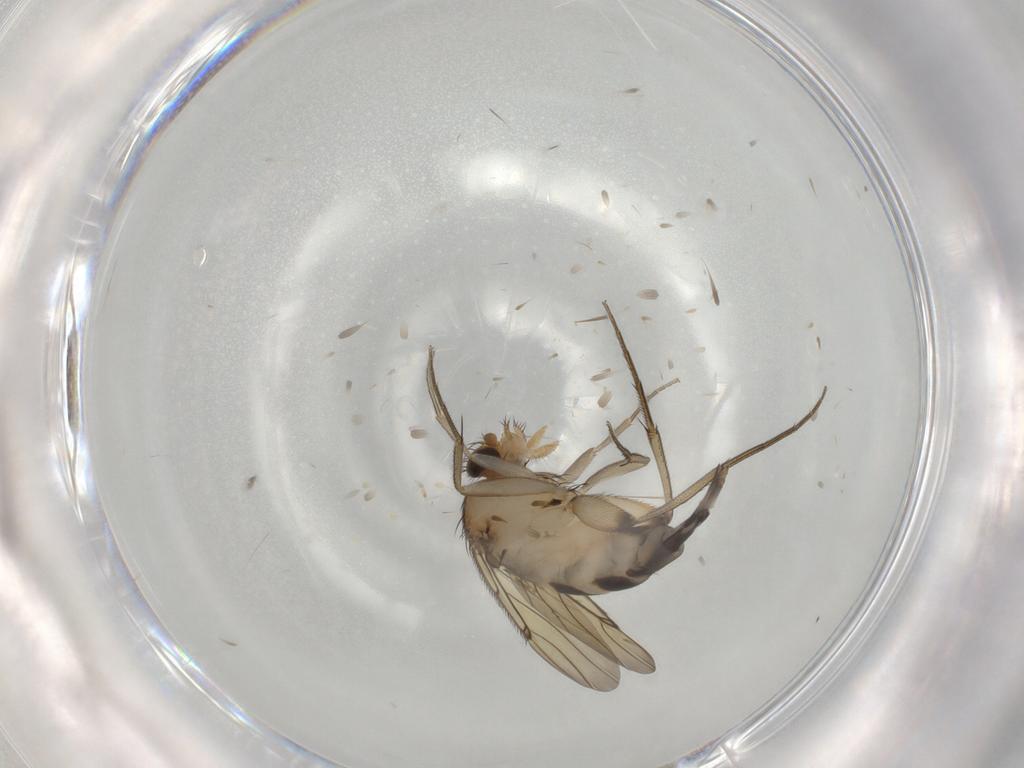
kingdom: Animalia
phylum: Arthropoda
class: Insecta
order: Diptera
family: Phoridae
